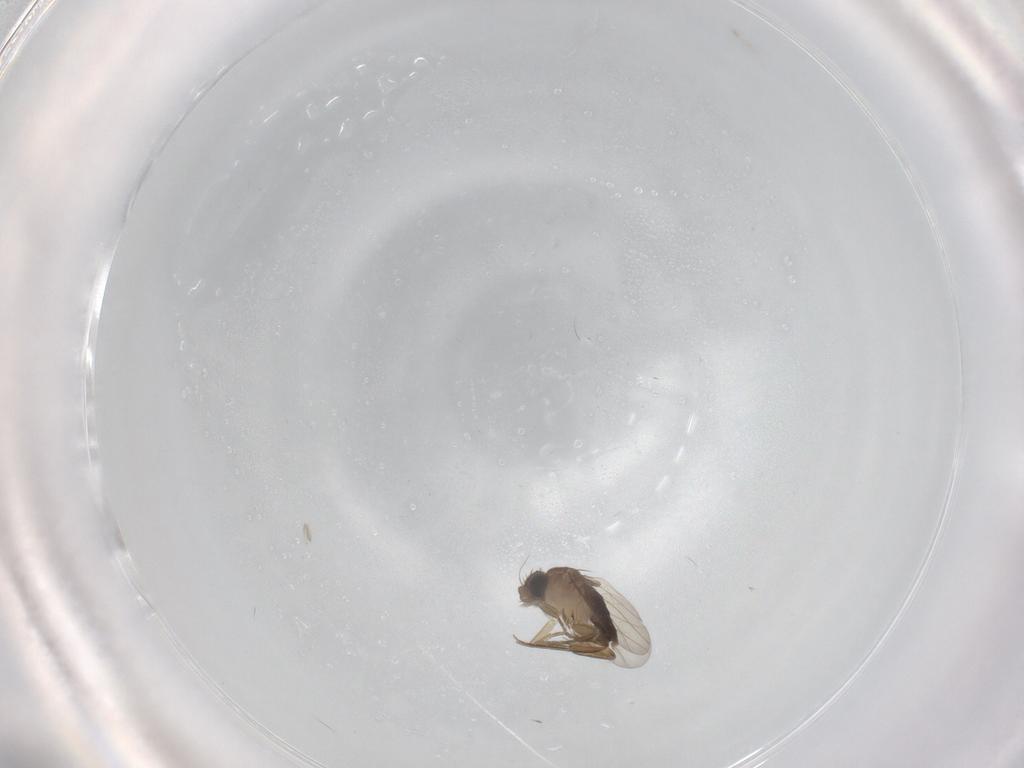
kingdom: Animalia
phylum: Arthropoda
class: Insecta
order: Diptera
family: Phoridae
